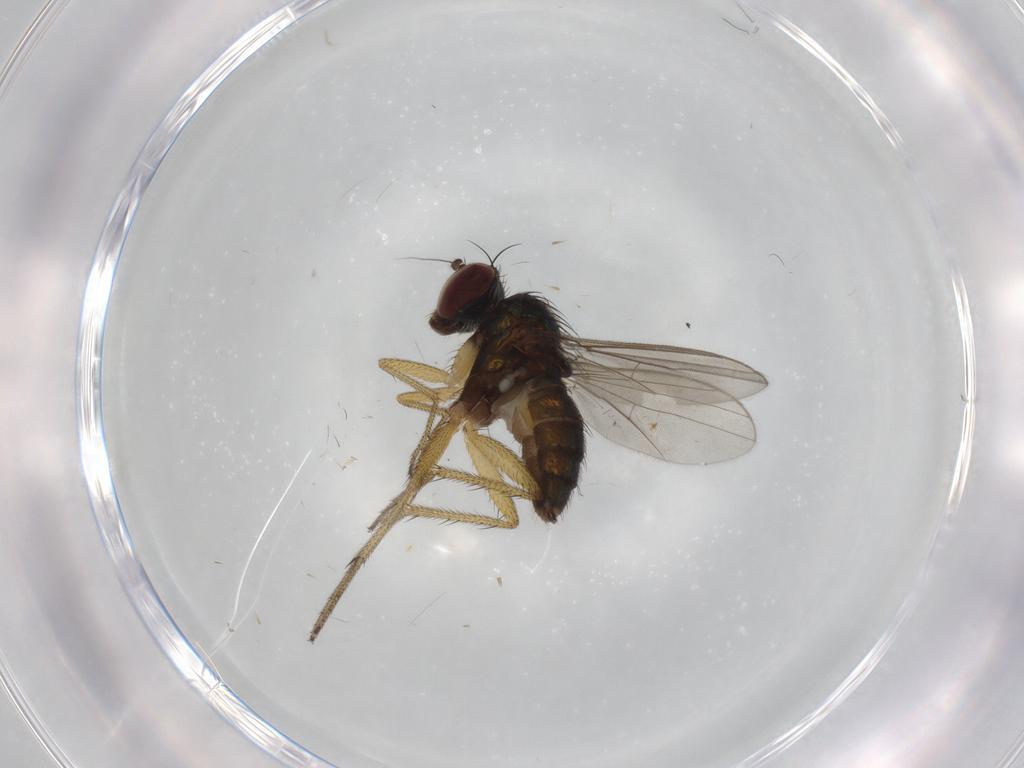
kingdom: Animalia
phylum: Arthropoda
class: Insecta
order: Diptera
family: Dolichopodidae
